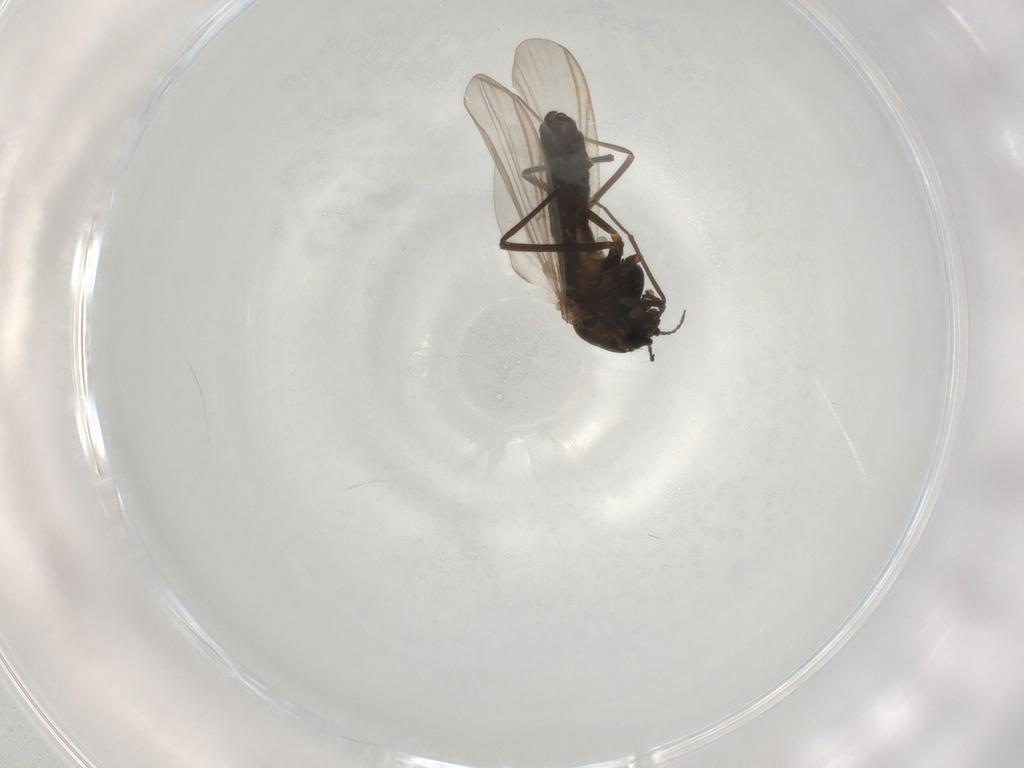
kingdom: Animalia
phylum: Arthropoda
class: Insecta
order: Diptera
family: Chironomidae
